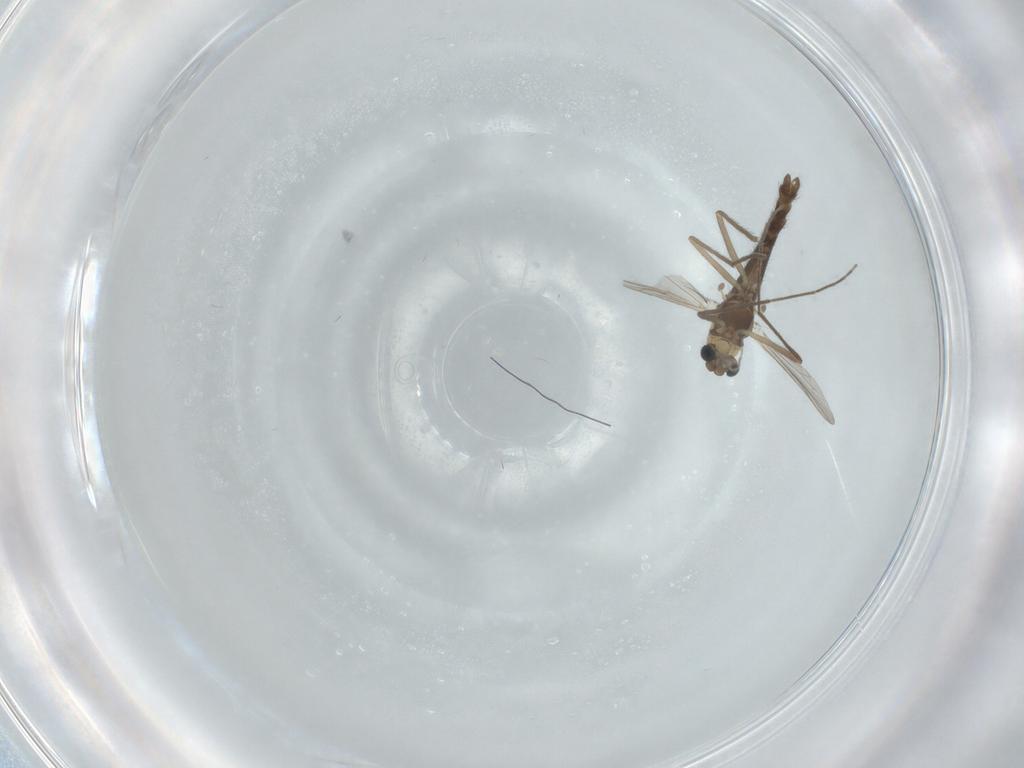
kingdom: Animalia
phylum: Arthropoda
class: Insecta
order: Diptera
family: Chironomidae
